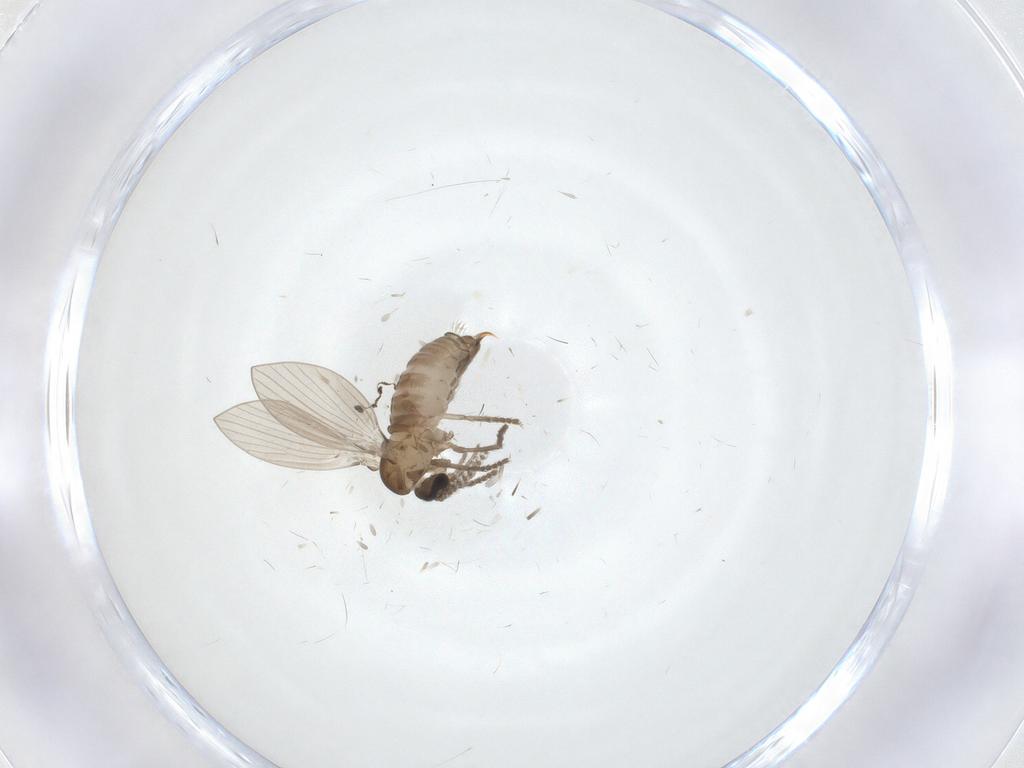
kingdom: Animalia
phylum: Arthropoda
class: Insecta
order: Diptera
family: Psychodidae
